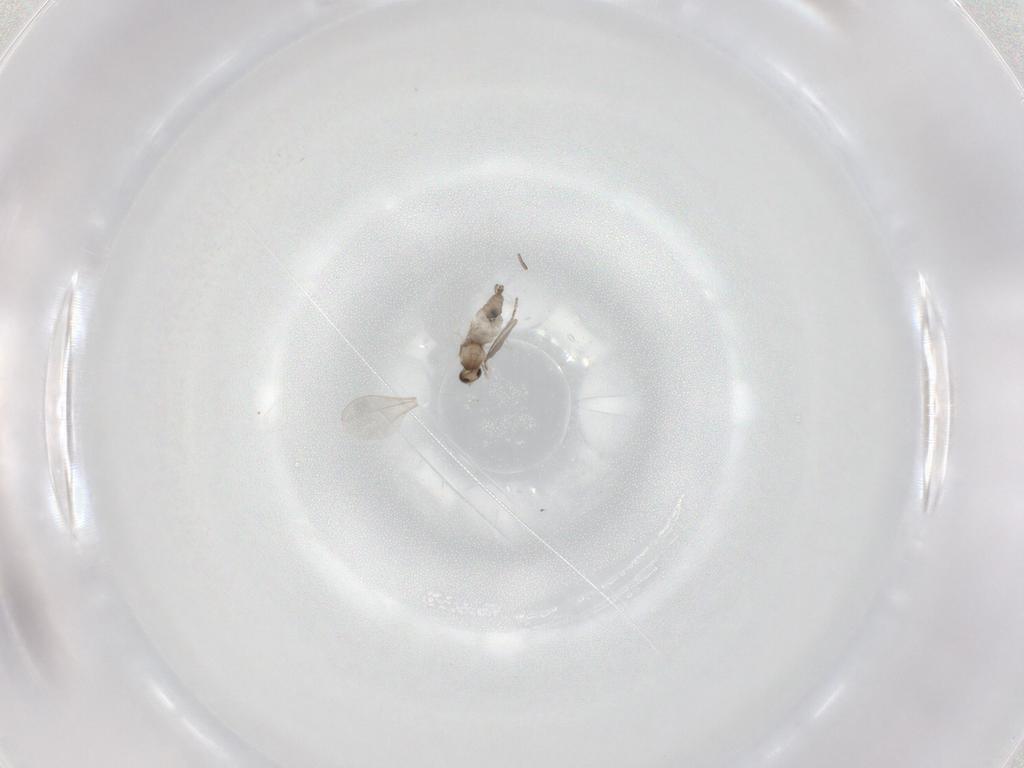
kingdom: Animalia
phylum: Arthropoda
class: Insecta
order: Diptera
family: Cecidomyiidae
